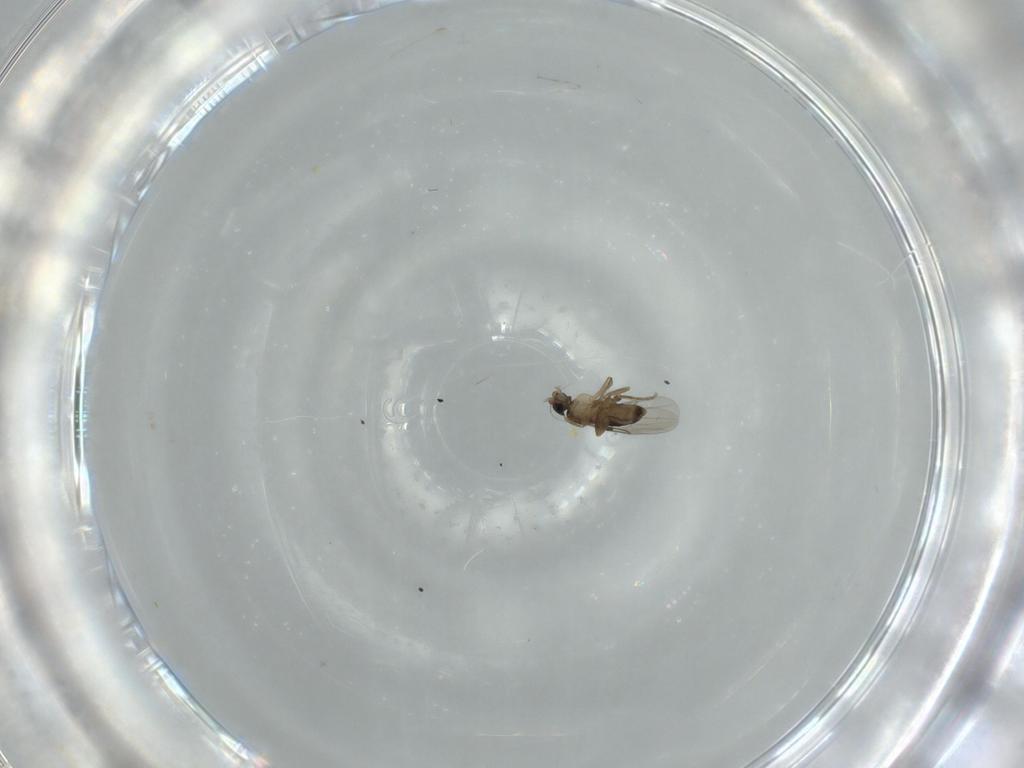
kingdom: Animalia
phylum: Arthropoda
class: Insecta
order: Diptera
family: Phoridae
